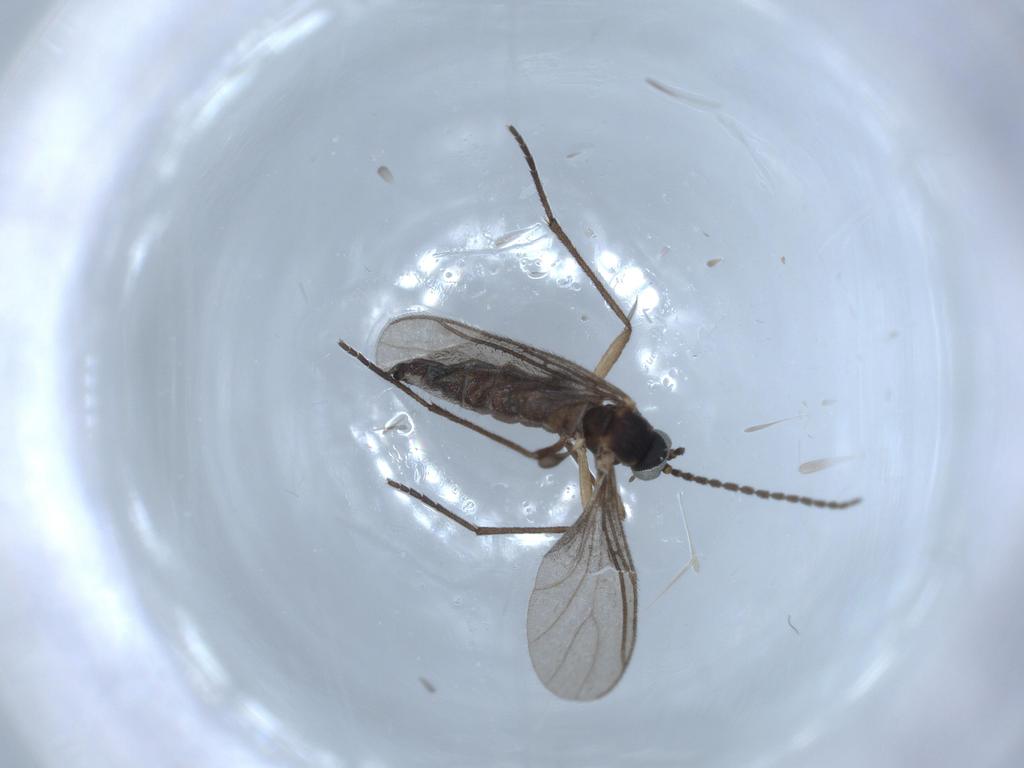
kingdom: Animalia
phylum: Arthropoda
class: Insecta
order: Diptera
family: Sciaridae
